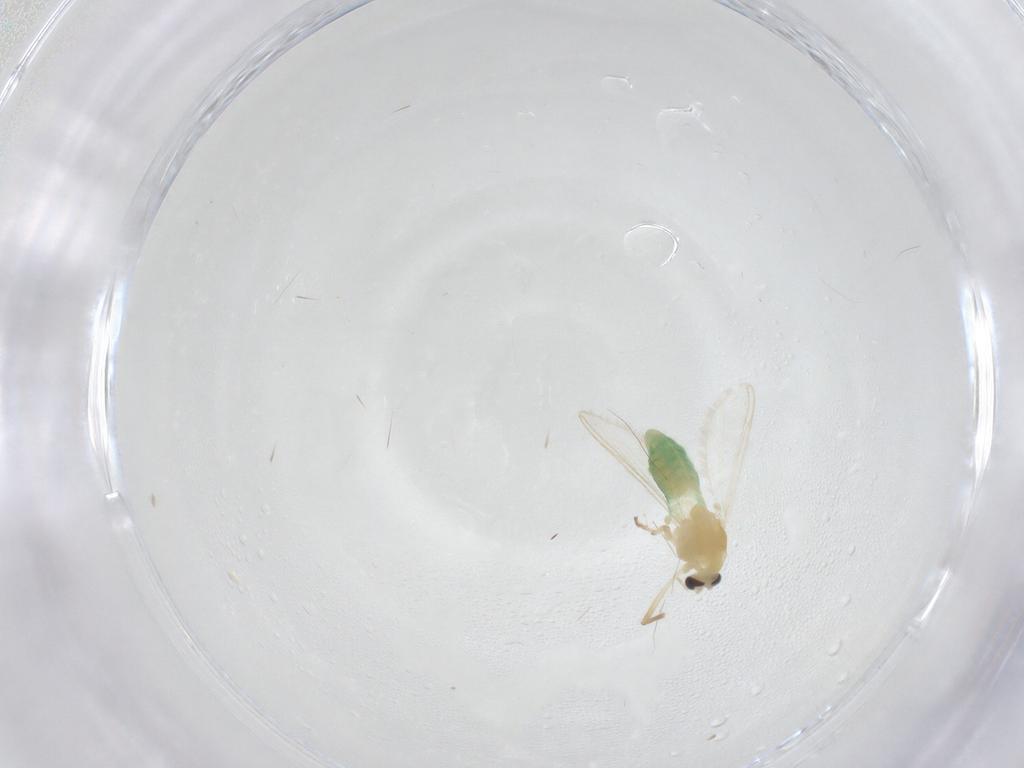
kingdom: Animalia
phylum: Arthropoda
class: Insecta
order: Diptera
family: Chironomidae
